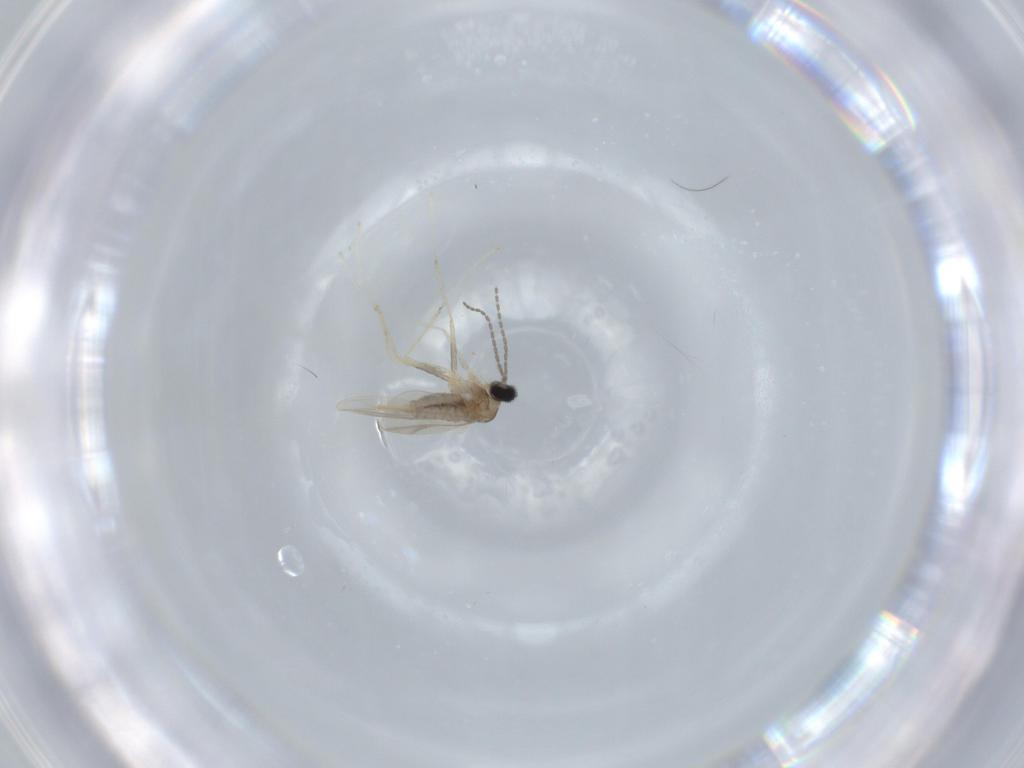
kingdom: Animalia
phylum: Arthropoda
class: Insecta
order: Diptera
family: Cecidomyiidae
